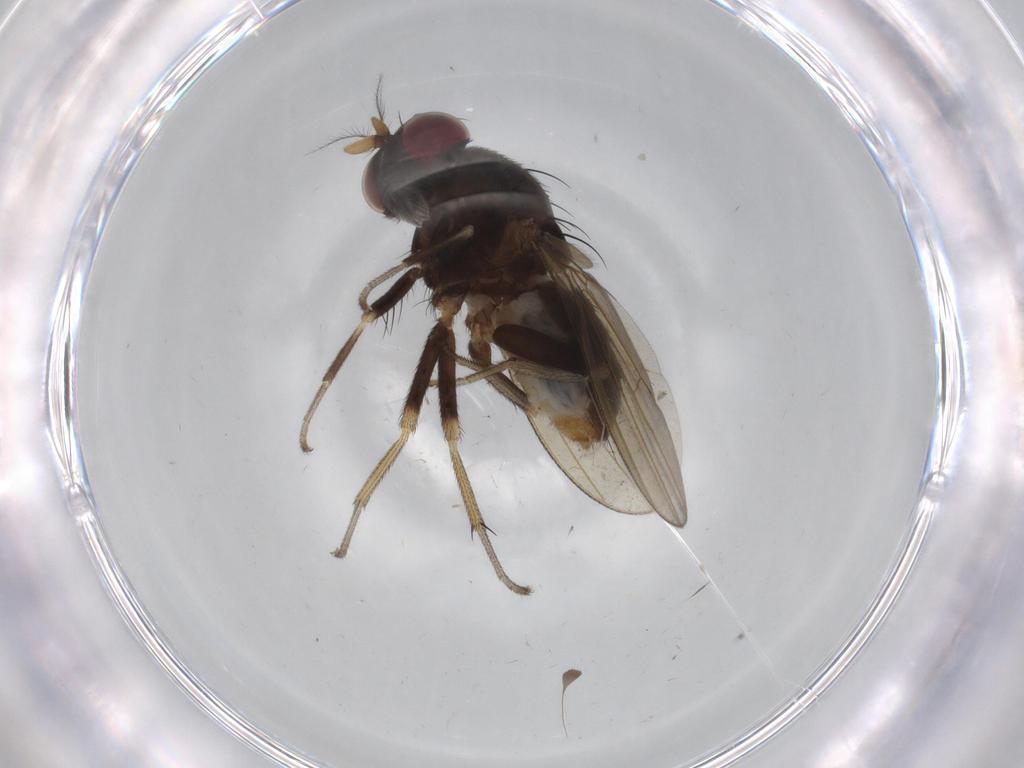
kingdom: Animalia
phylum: Arthropoda
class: Insecta
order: Diptera
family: Lauxaniidae
